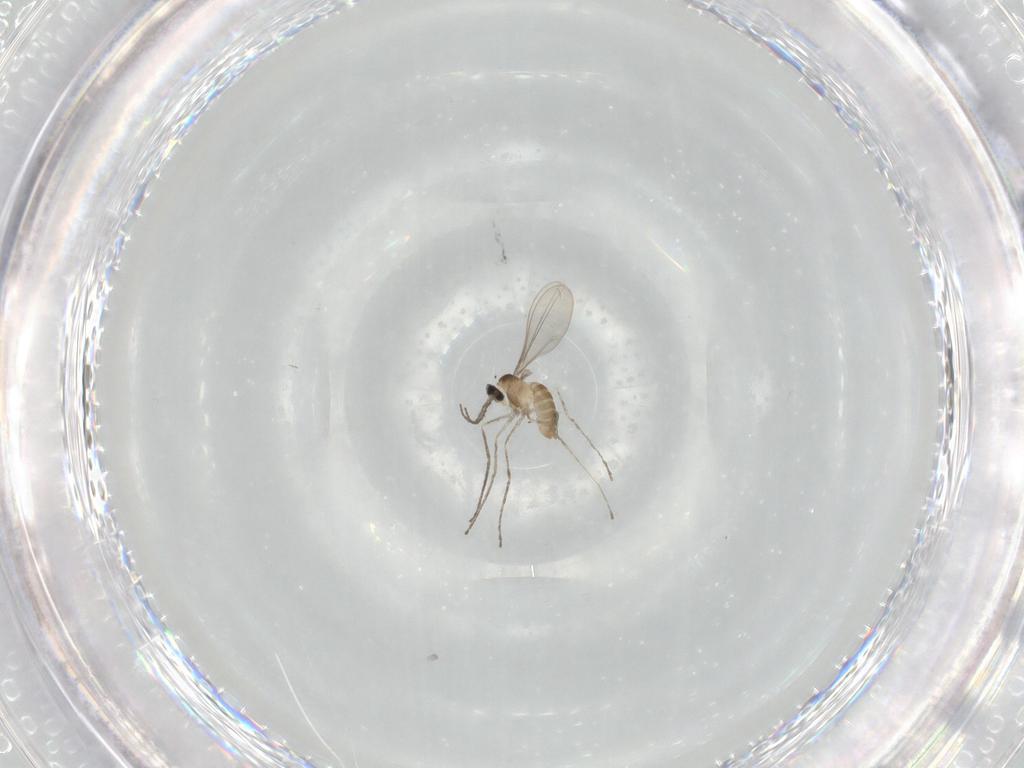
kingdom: Animalia
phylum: Arthropoda
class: Insecta
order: Diptera
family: Cecidomyiidae
